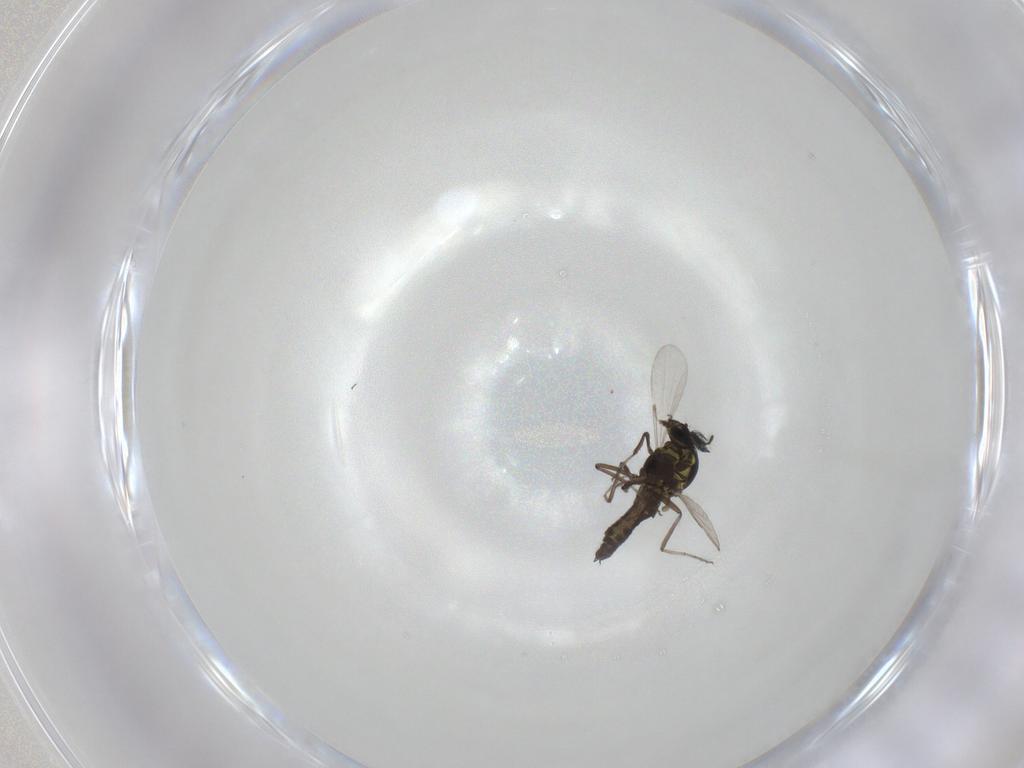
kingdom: Animalia
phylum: Arthropoda
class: Insecta
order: Diptera
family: Ceratopogonidae
